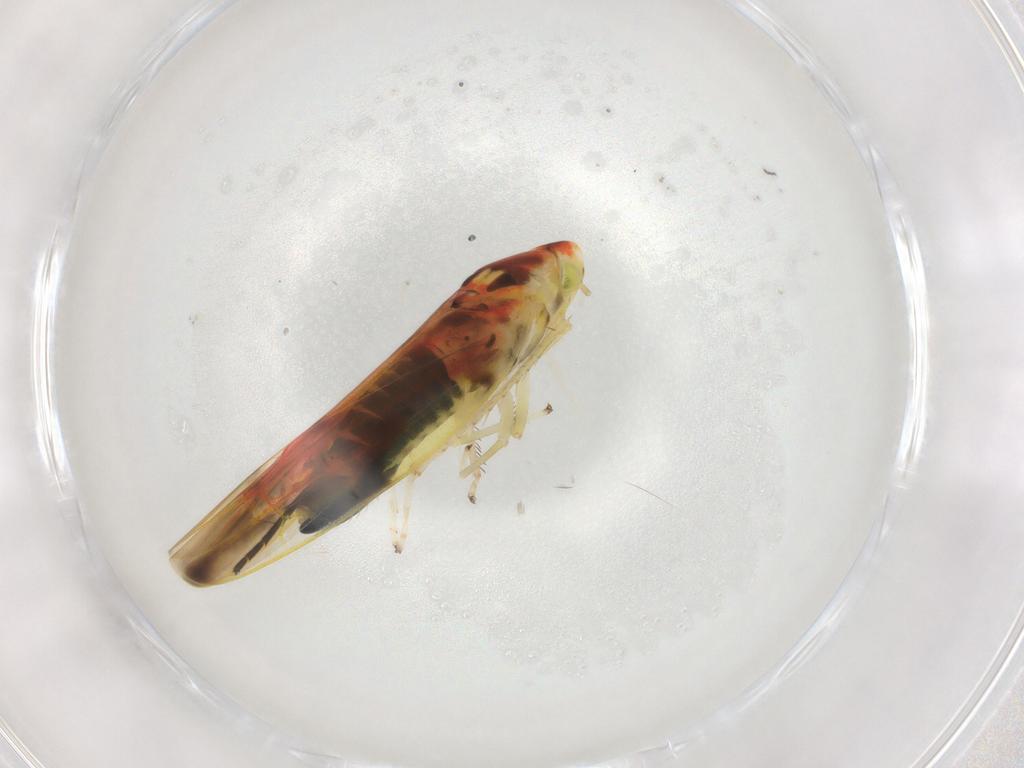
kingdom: Animalia
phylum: Arthropoda
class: Insecta
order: Hemiptera
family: Cicadellidae
